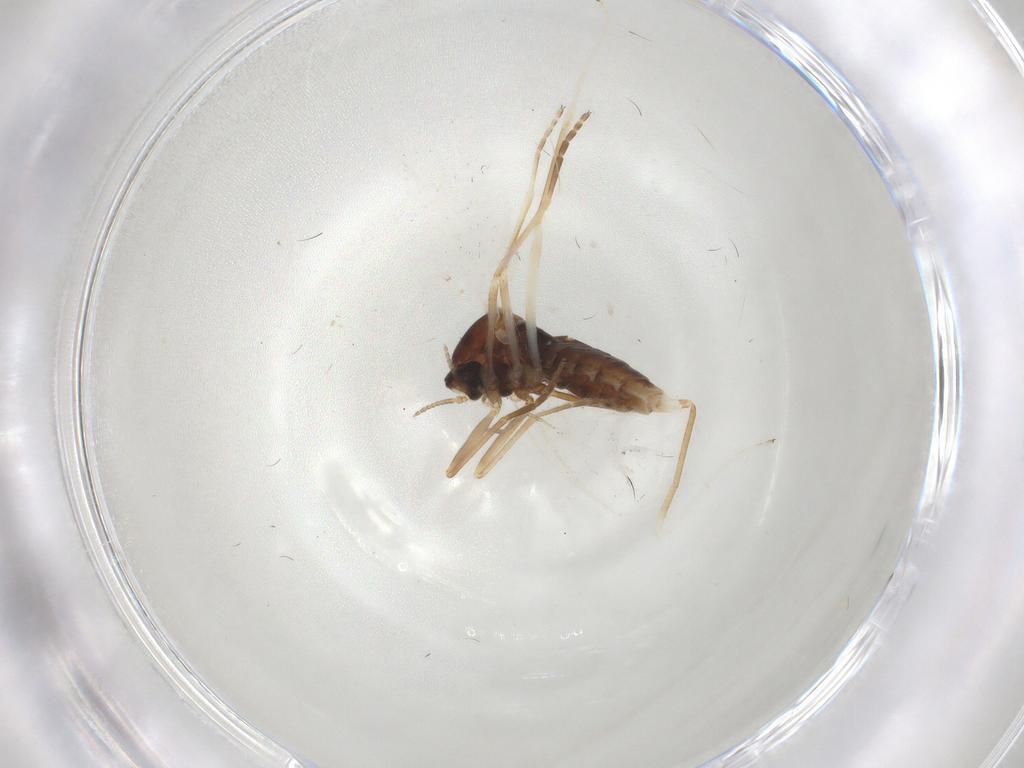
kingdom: Animalia
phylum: Arthropoda
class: Insecta
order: Diptera
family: Cecidomyiidae
